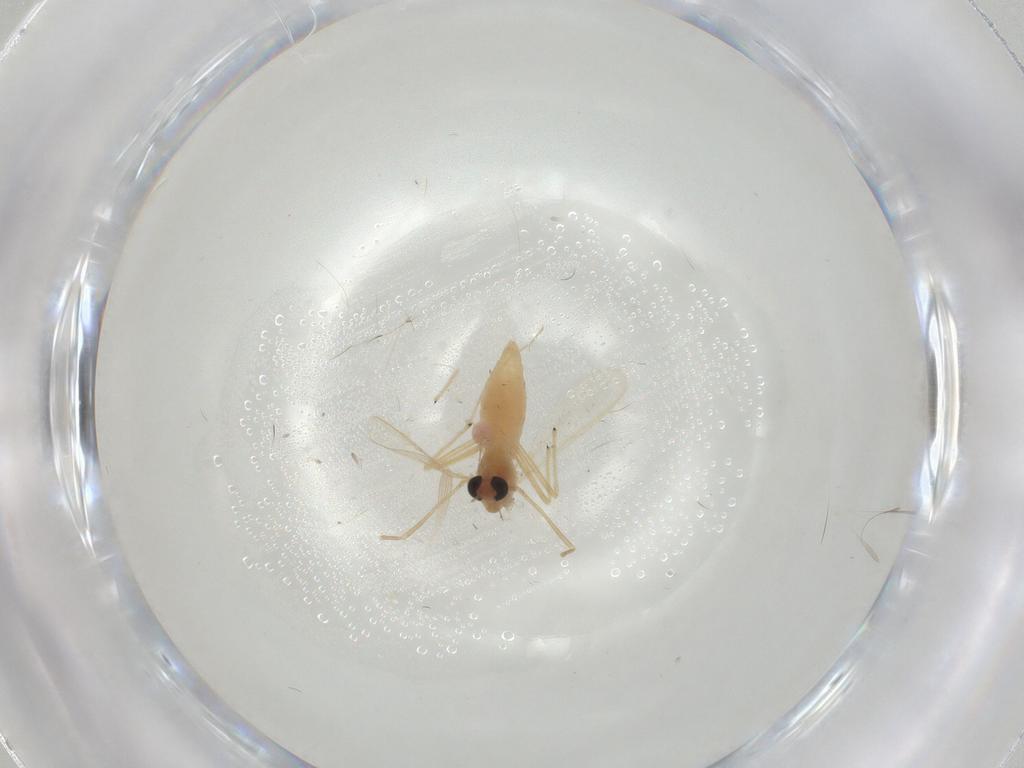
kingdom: Animalia
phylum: Arthropoda
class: Insecta
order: Diptera
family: Chironomidae
